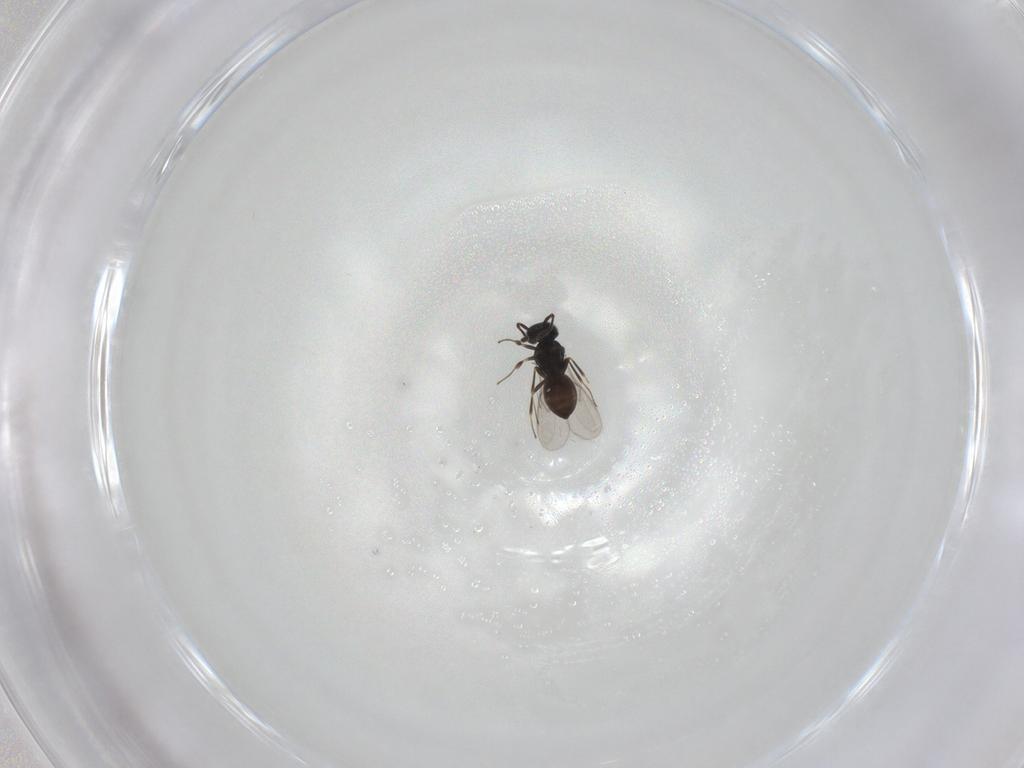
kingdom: Animalia
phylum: Arthropoda
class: Insecta
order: Hymenoptera
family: Scelionidae
